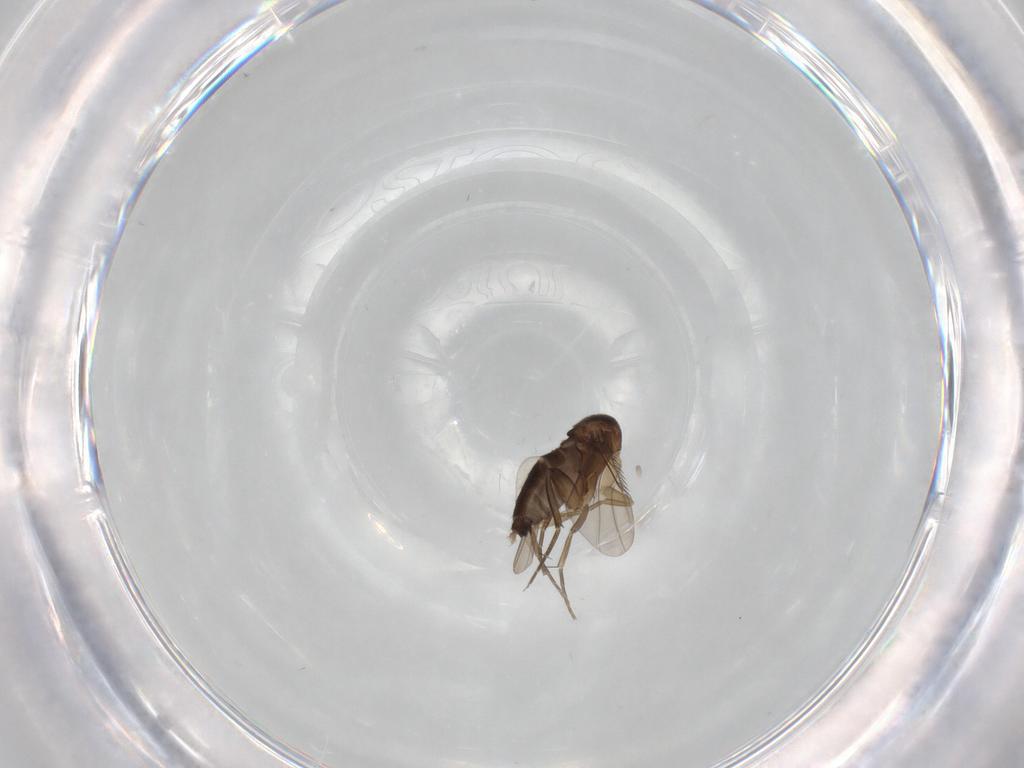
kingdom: Animalia
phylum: Arthropoda
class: Insecta
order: Diptera
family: Phoridae
